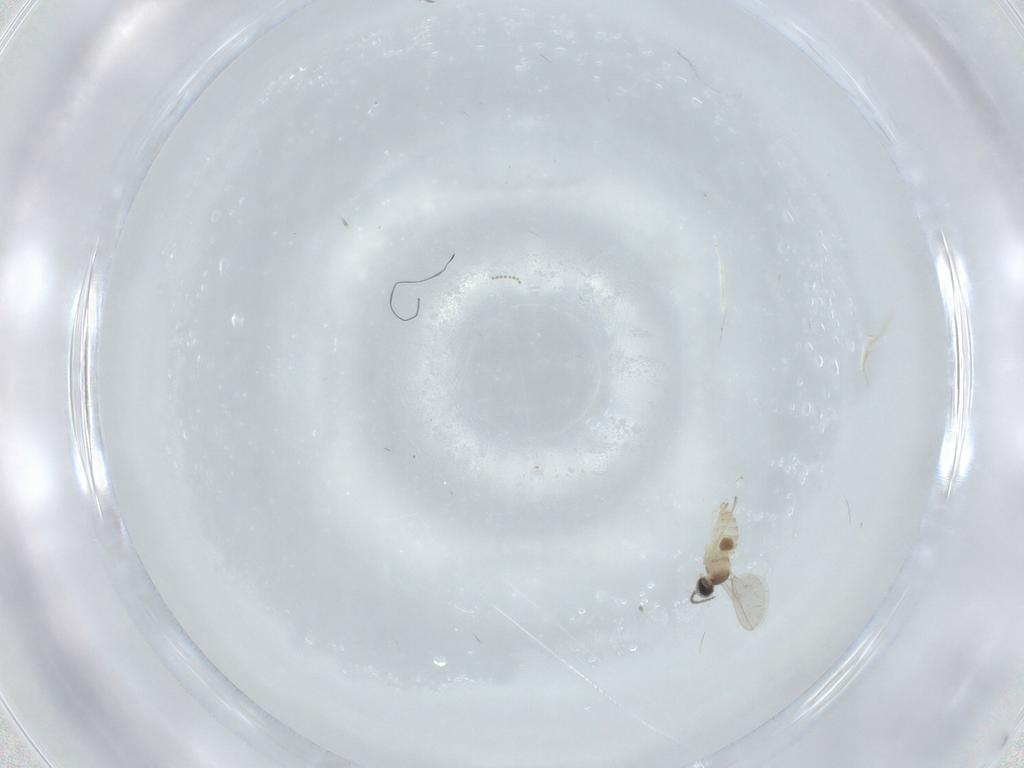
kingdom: Animalia
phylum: Arthropoda
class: Insecta
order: Diptera
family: Cecidomyiidae
